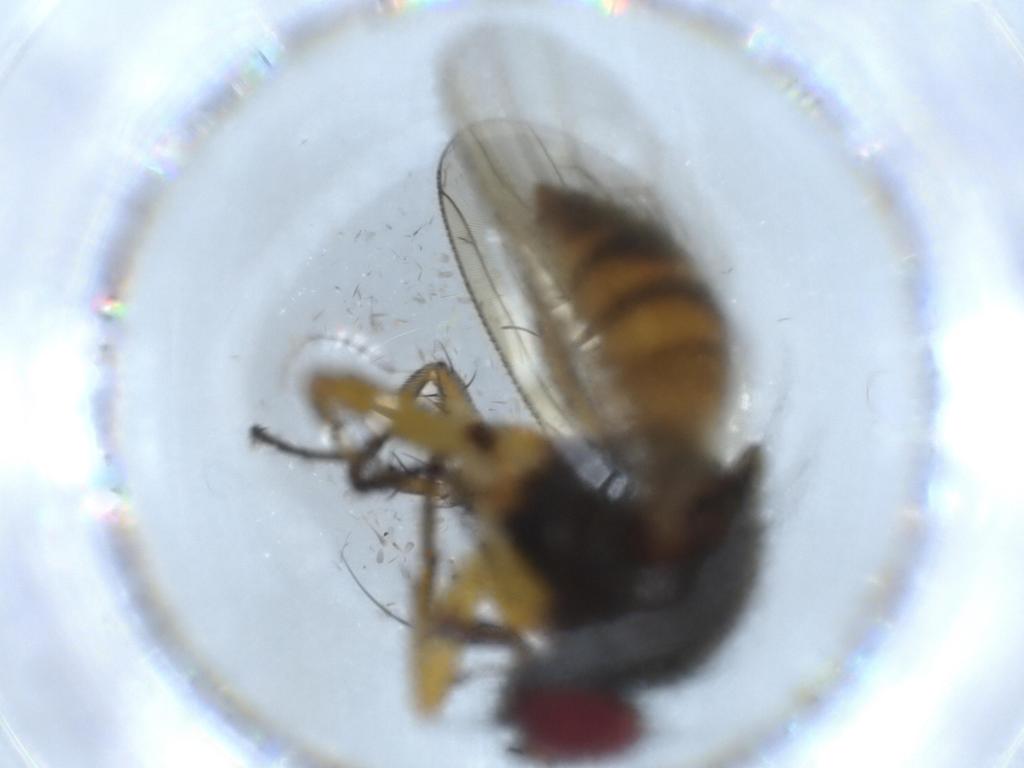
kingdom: Animalia
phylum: Arthropoda
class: Insecta
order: Diptera
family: Muscidae
